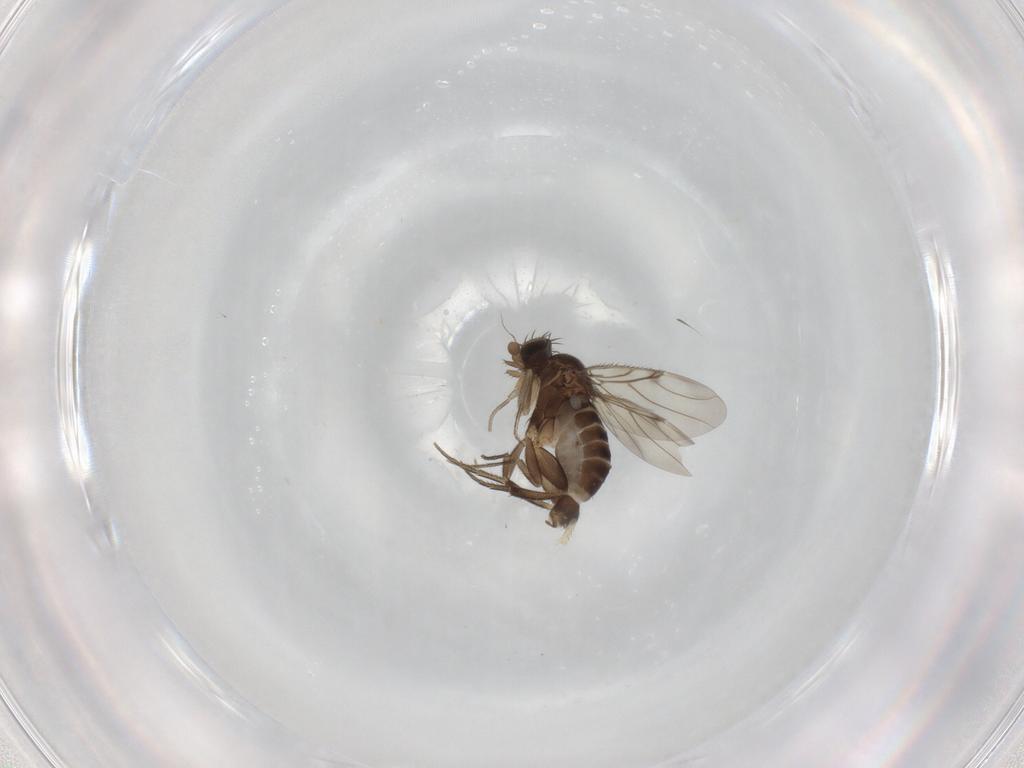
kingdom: Animalia
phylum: Arthropoda
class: Insecta
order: Diptera
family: Phoridae
